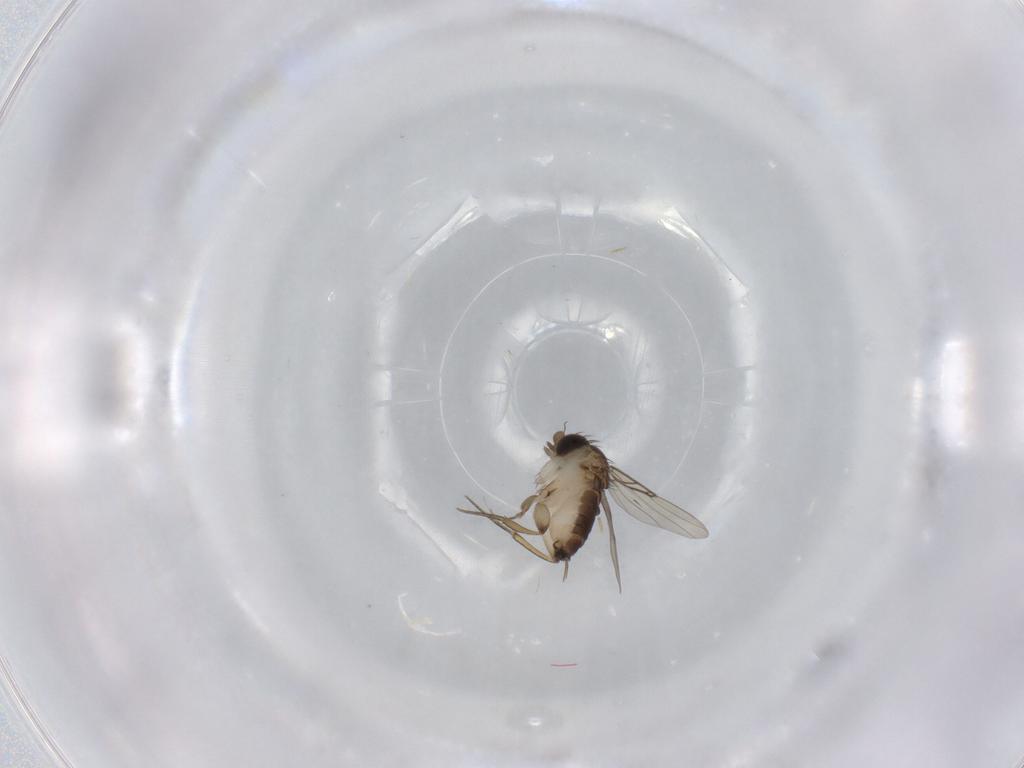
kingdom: Animalia
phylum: Arthropoda
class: Insecta
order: Diptera
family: Phoridae
